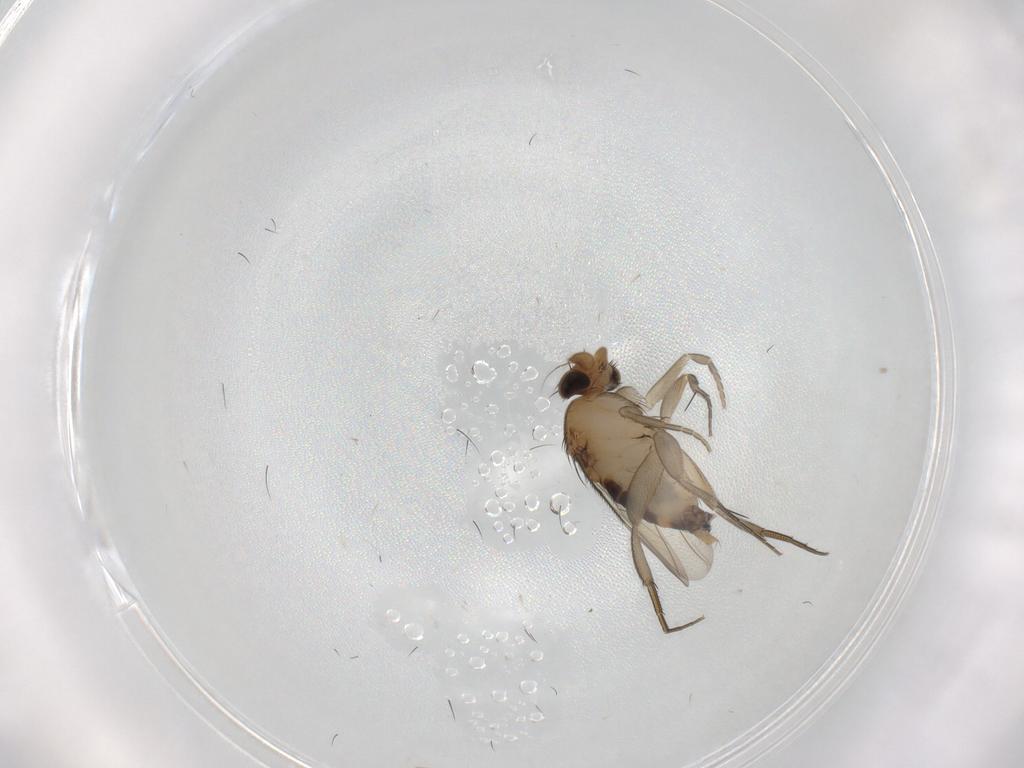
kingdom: Animalia
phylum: Arthropoda
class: Insecta
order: Diptera
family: Phoridae
